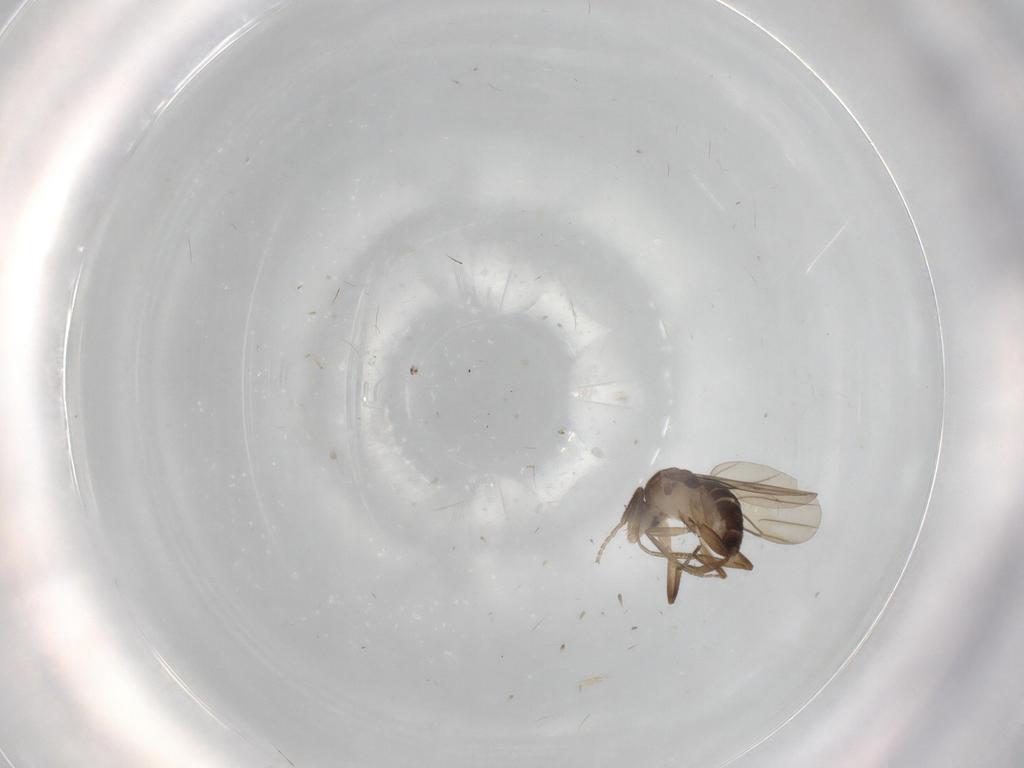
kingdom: Animalia
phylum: Arthropoda
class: Insecta
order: Diptera
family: Phoridae
